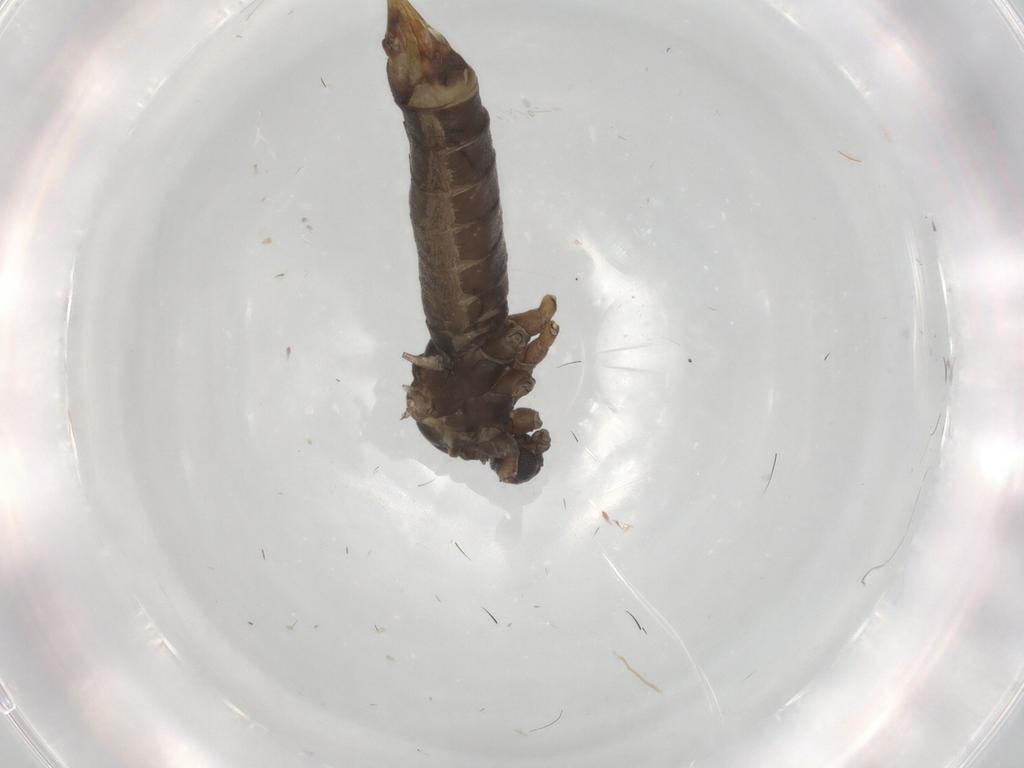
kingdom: Animalia
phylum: Arthropoda
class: Insecta
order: Diptera
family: Limoniidae
